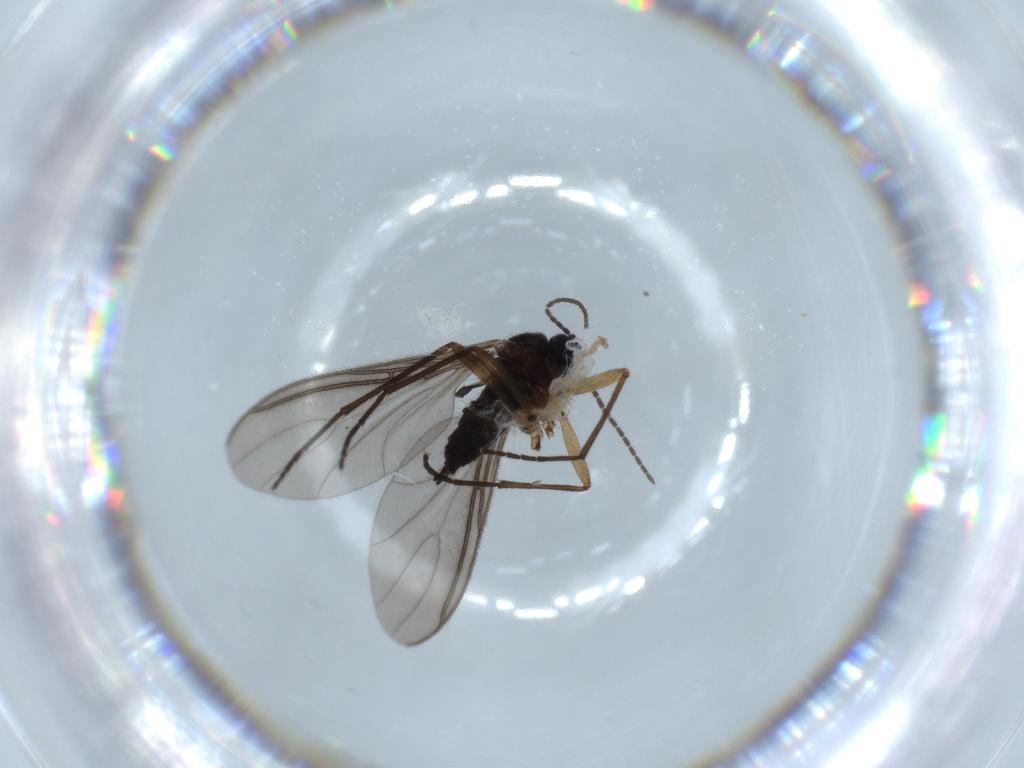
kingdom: Animalia
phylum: Arthropoda
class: Insecta
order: Diptera
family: Sciaridae
